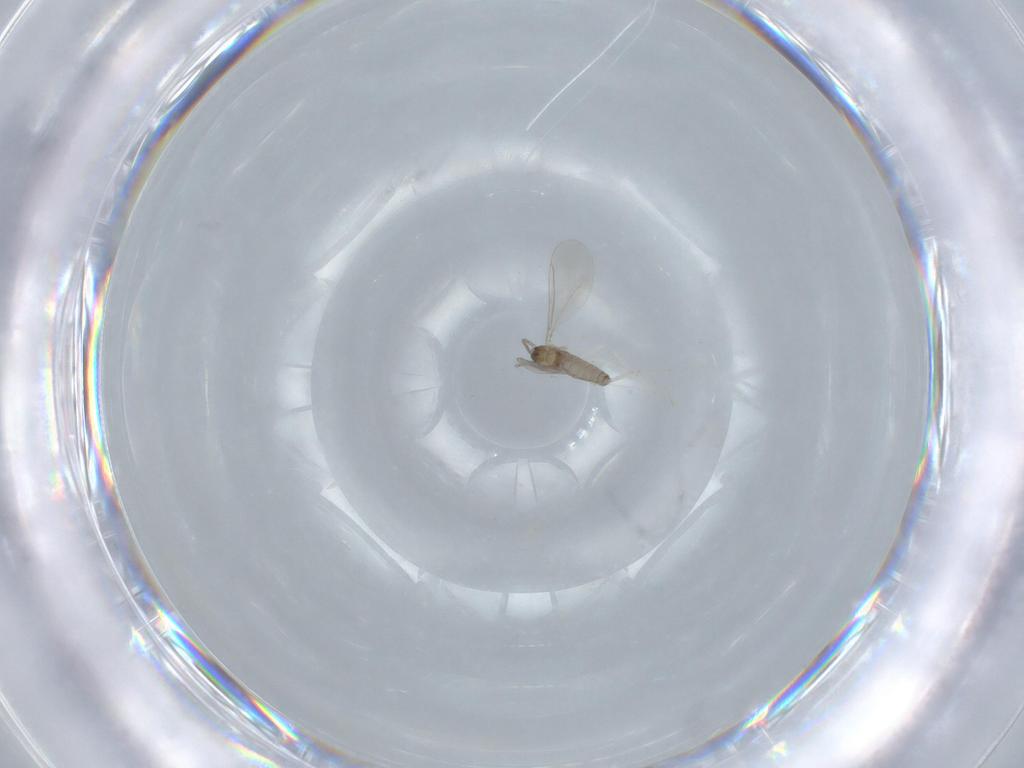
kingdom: Animalia
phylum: Arthropoda
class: Insecta
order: Diptera
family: Cecidomyiidae
